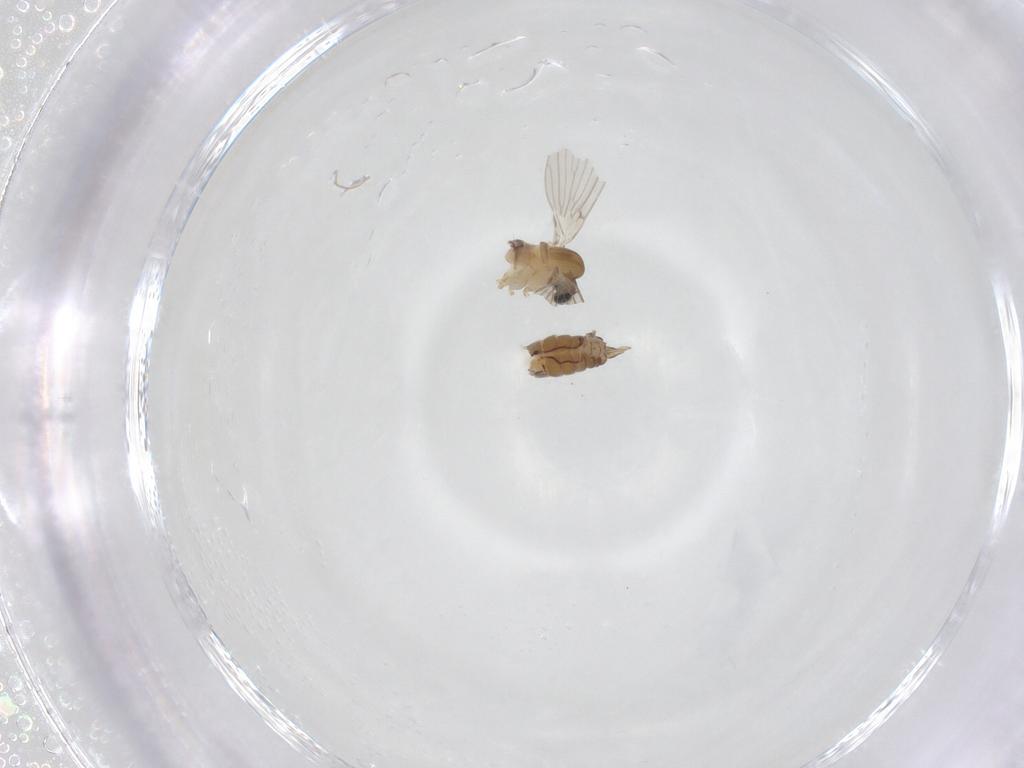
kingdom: Animalia
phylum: Arthropoda
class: Insecta
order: Diptera
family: Psychodidae
